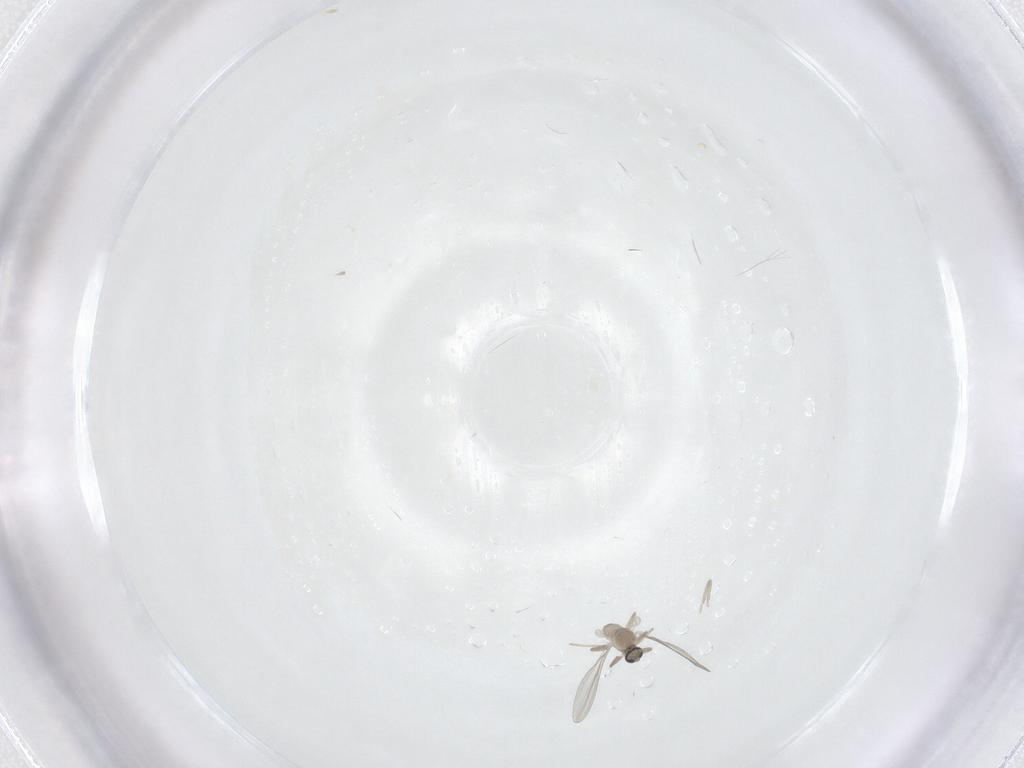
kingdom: Animalia
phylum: Arthropoda
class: Insecta
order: Diptera
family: Cecidomyiidae
